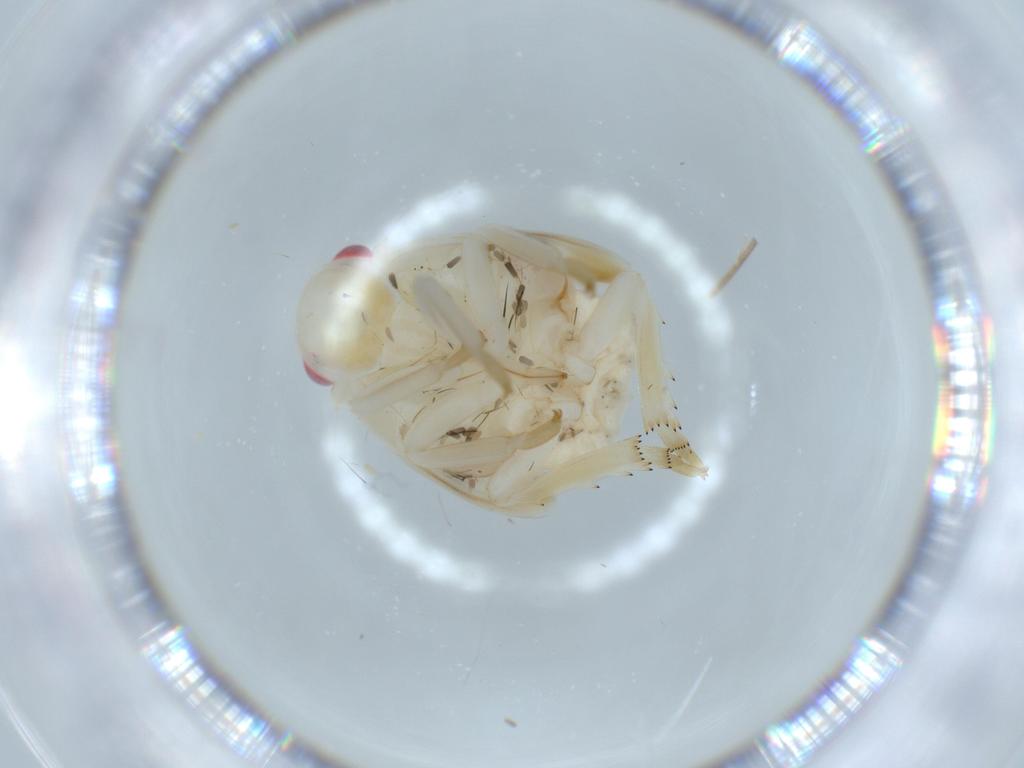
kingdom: Animalia
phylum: Arthropoda
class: Insecta
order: Hemiptera
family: Flatidae
